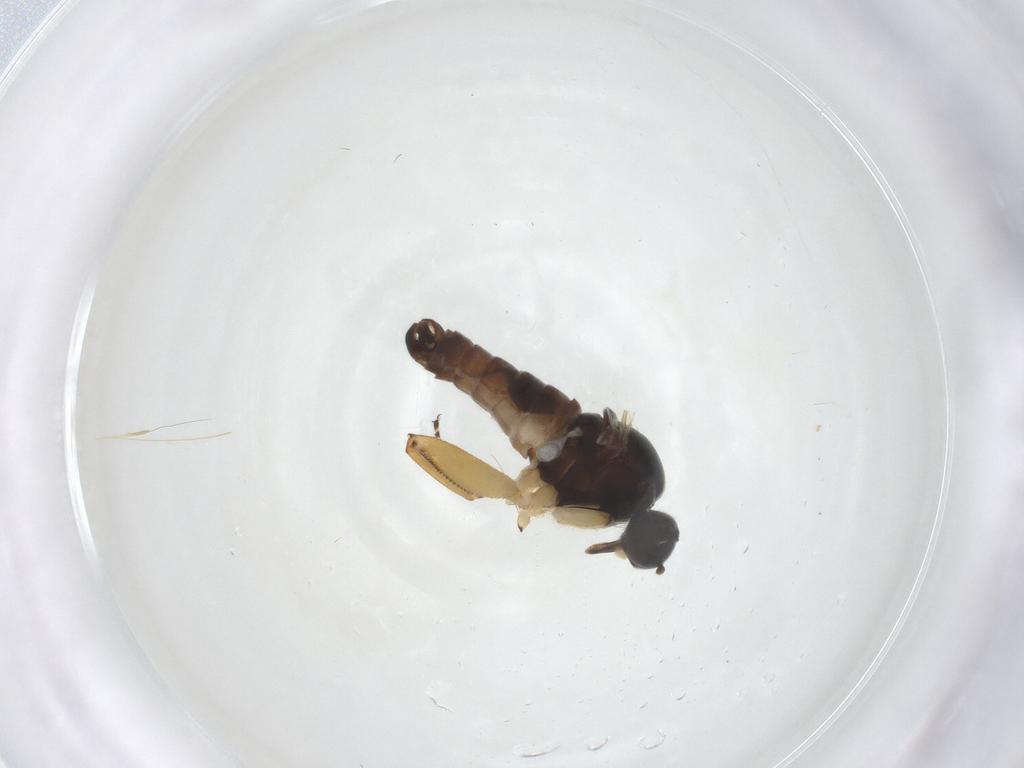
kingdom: Animalia
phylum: Arthropoda
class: Insecta
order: Diptera
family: Hybotidae
